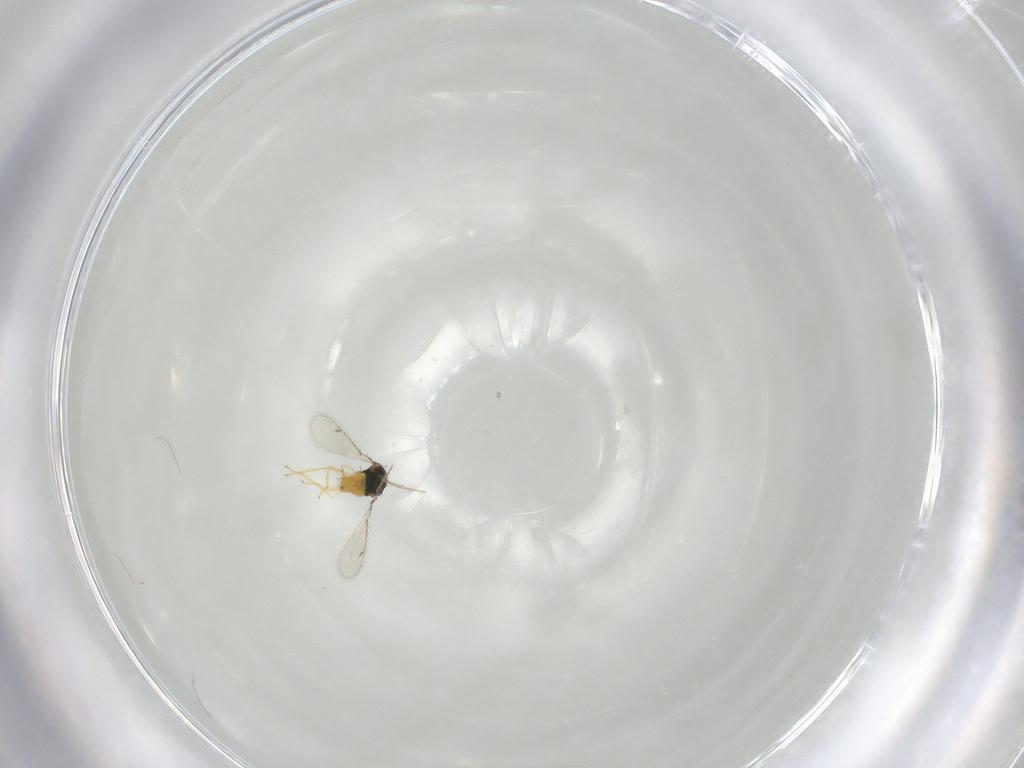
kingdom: Animalia
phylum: Arthropoda
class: Insecta
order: Hymenoptera
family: Eulophidae
